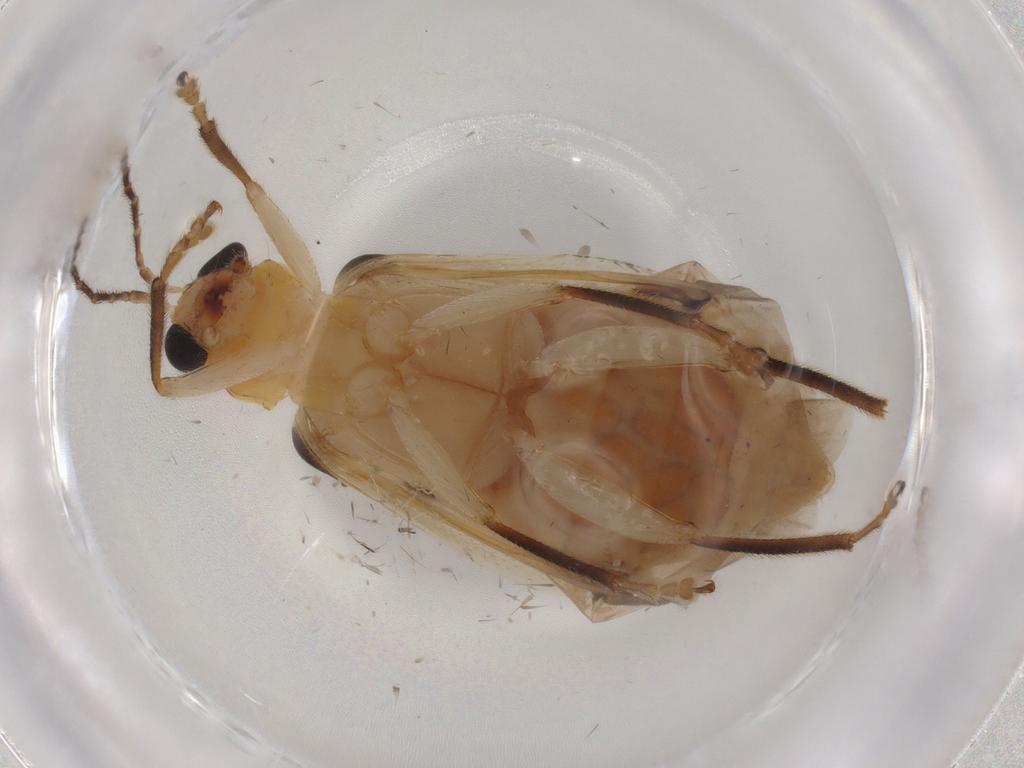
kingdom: Animalia
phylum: Arthropoda
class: Insecta
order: Coleoptera
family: Chrysomelidae
